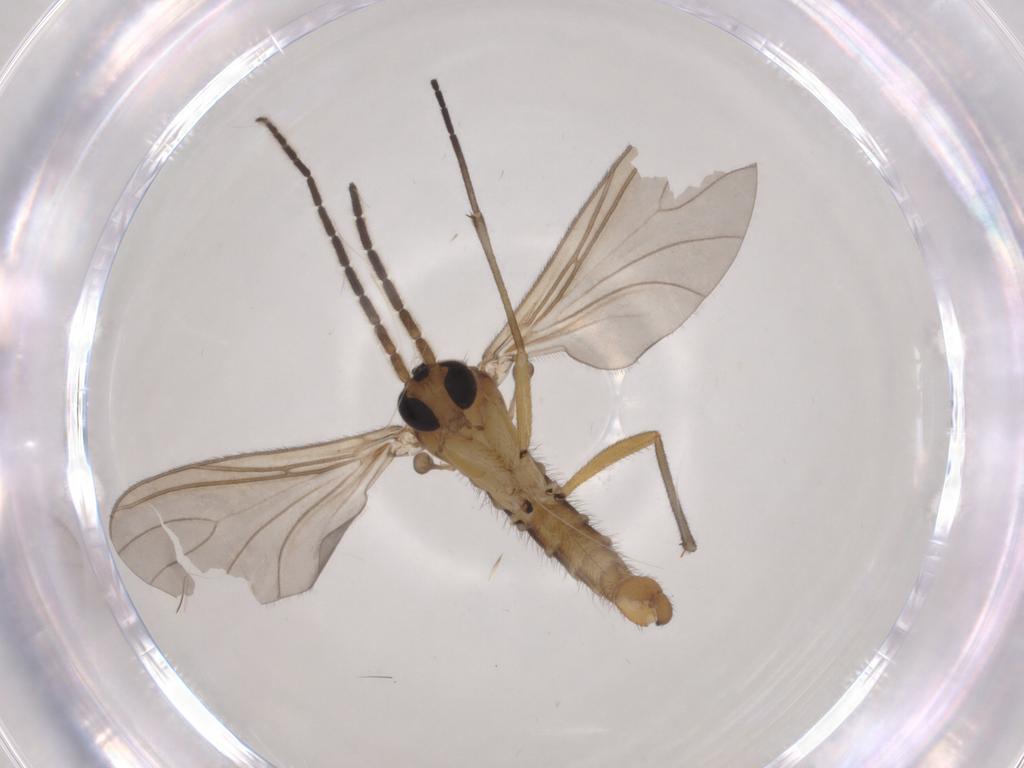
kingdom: Animalia
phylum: Arthropoda
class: Insecta
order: Diptera
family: Sciaridae
